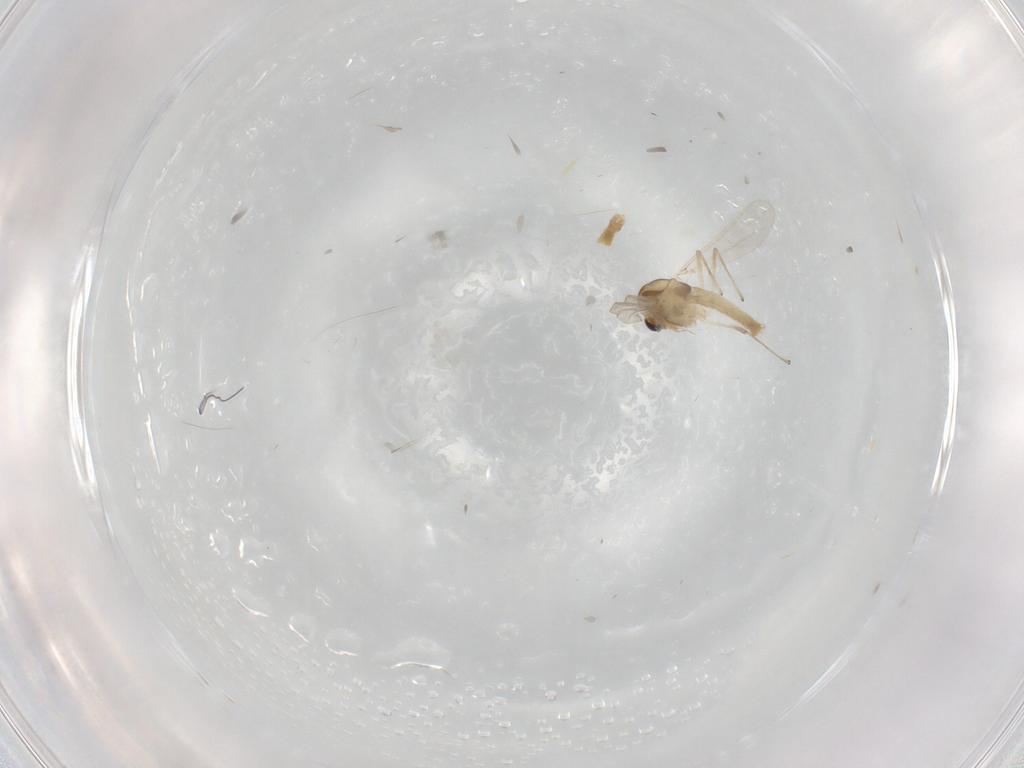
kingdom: Animalia
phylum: Arthropoda
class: Insecta
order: Diptera
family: Chironomidae
